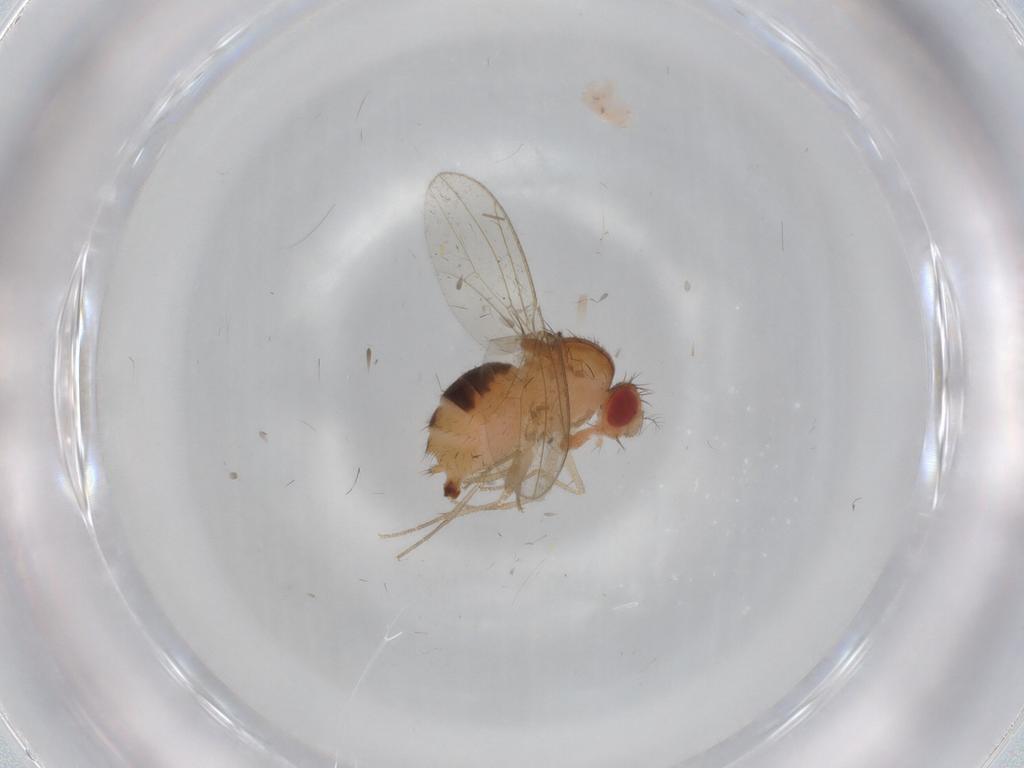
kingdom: Animalia
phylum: Arthropoda
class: Insecta
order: Diptera
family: Drosophilidae
